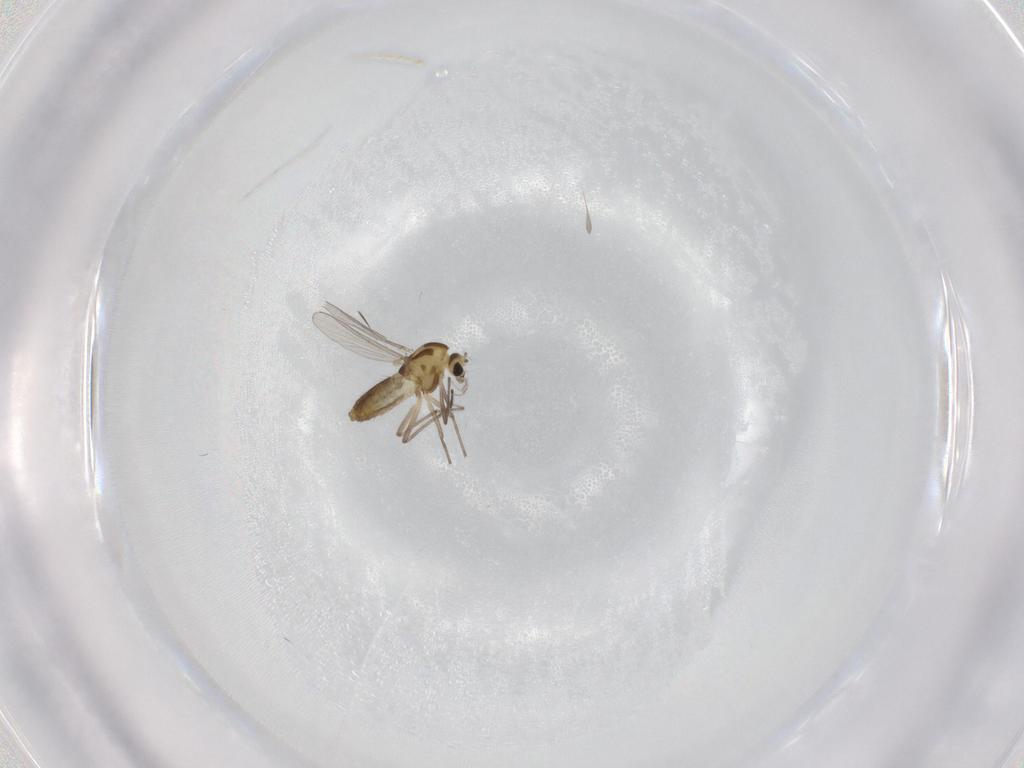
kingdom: Animalia
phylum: Arthropoda
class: Insecta
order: Diptera
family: Chironomidae
